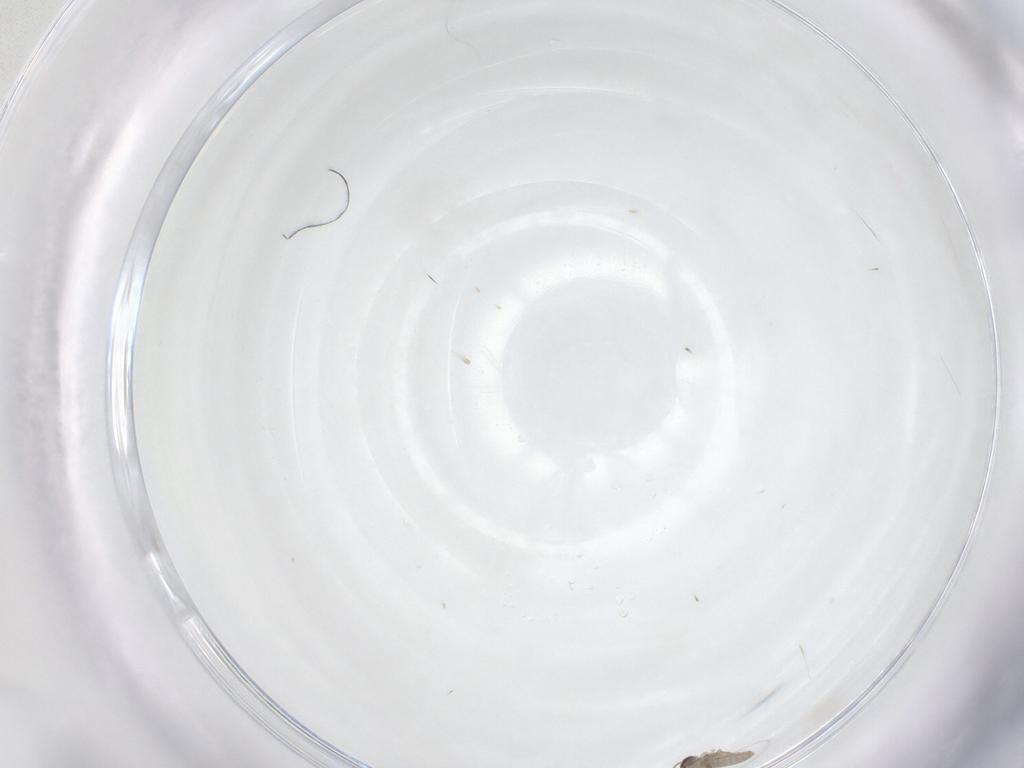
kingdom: Animalia
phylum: Arthropoda
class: Insecta
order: Diptera
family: Cecidomyiidae
